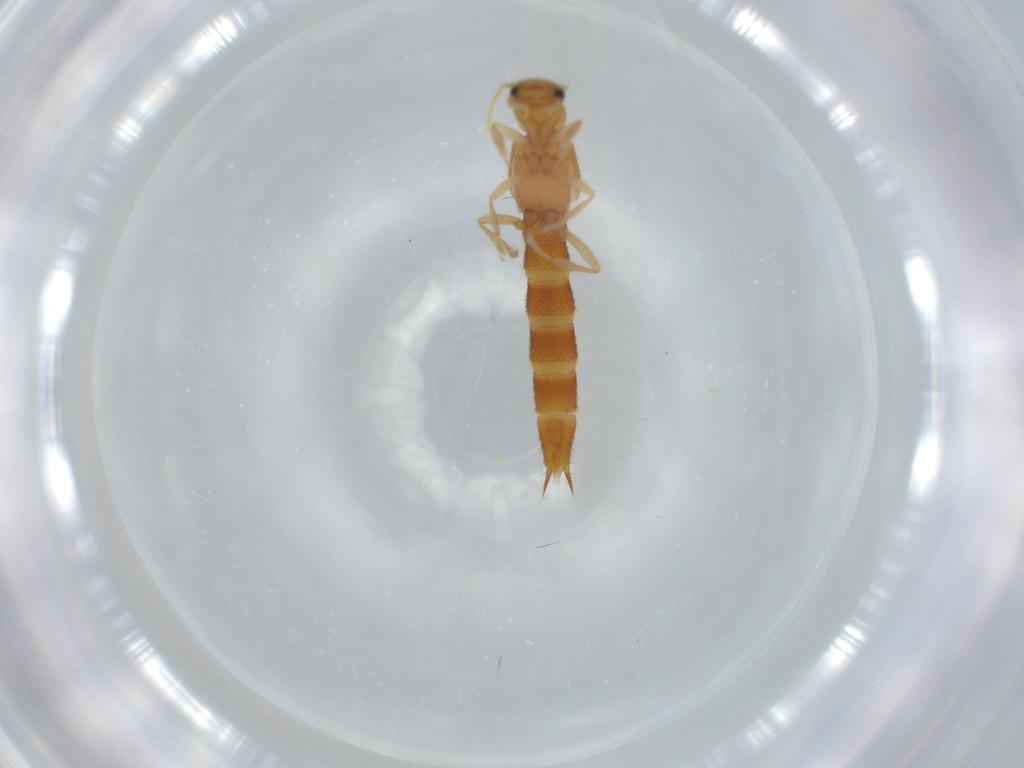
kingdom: Animalia
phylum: Arthropoda
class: Insecta
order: Coleoptera
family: Staphylinidae
